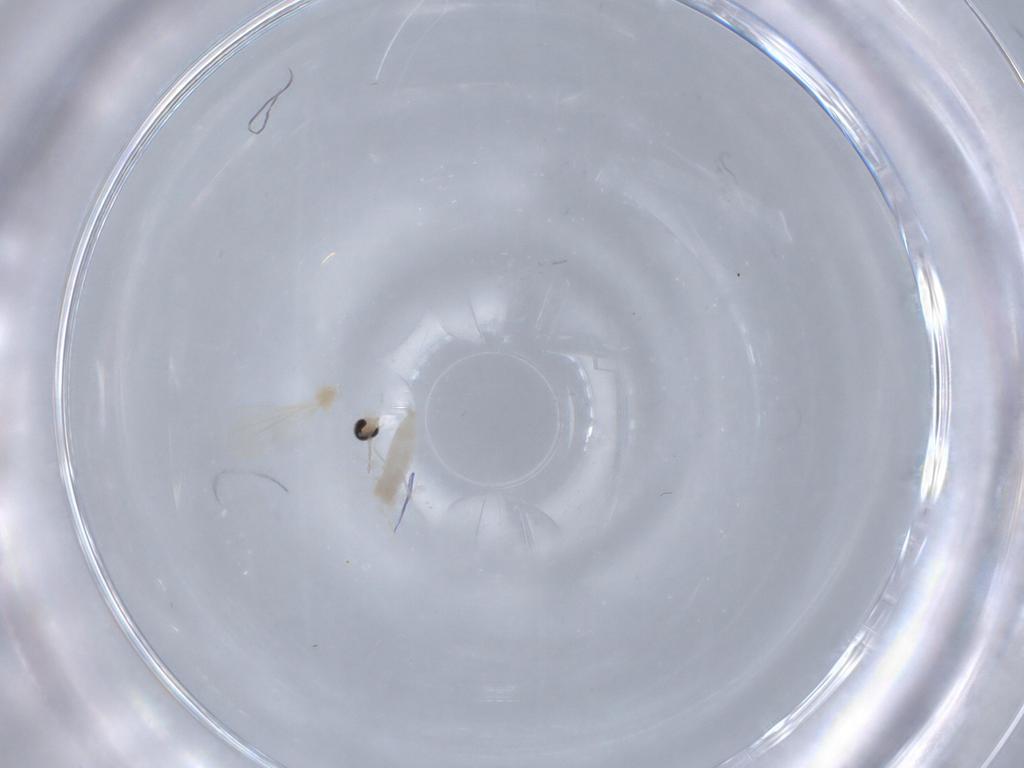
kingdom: Animalia
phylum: Arthropoda
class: Insecta
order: Diptera
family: Cecidomyiidae
